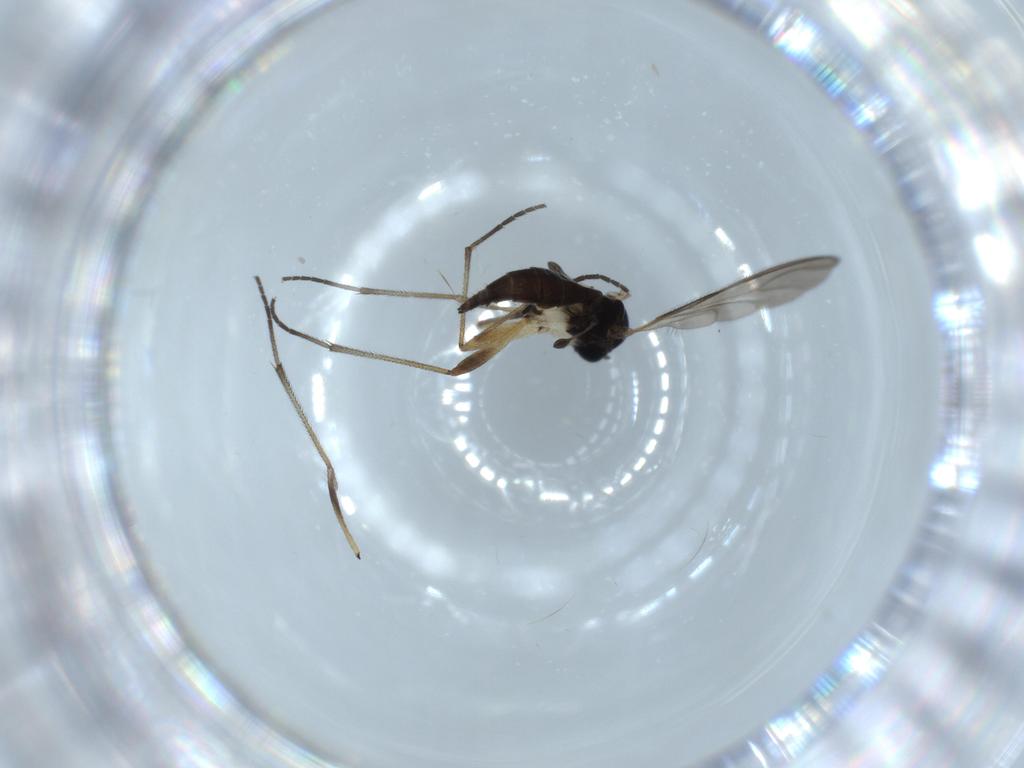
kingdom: Animalia
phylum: Arthropoda
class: Insecta
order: Diptera
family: Sciaridae
